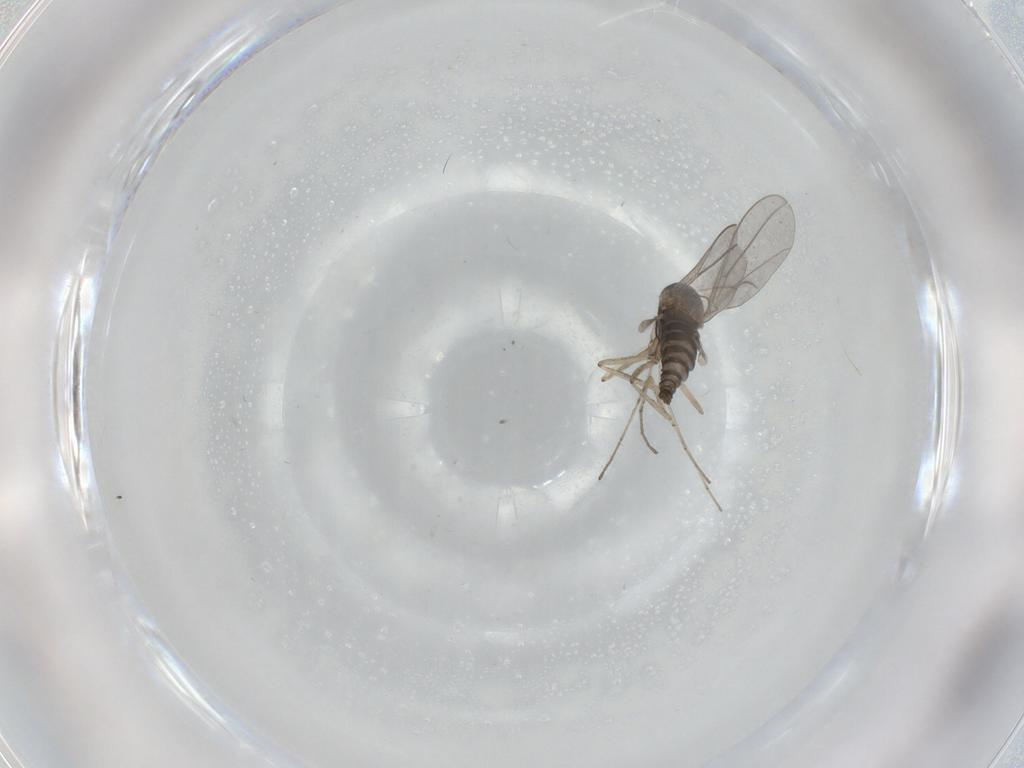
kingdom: Animalia
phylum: Arthropoda
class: Insecta
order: Diptera
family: Cecidomyiidae
